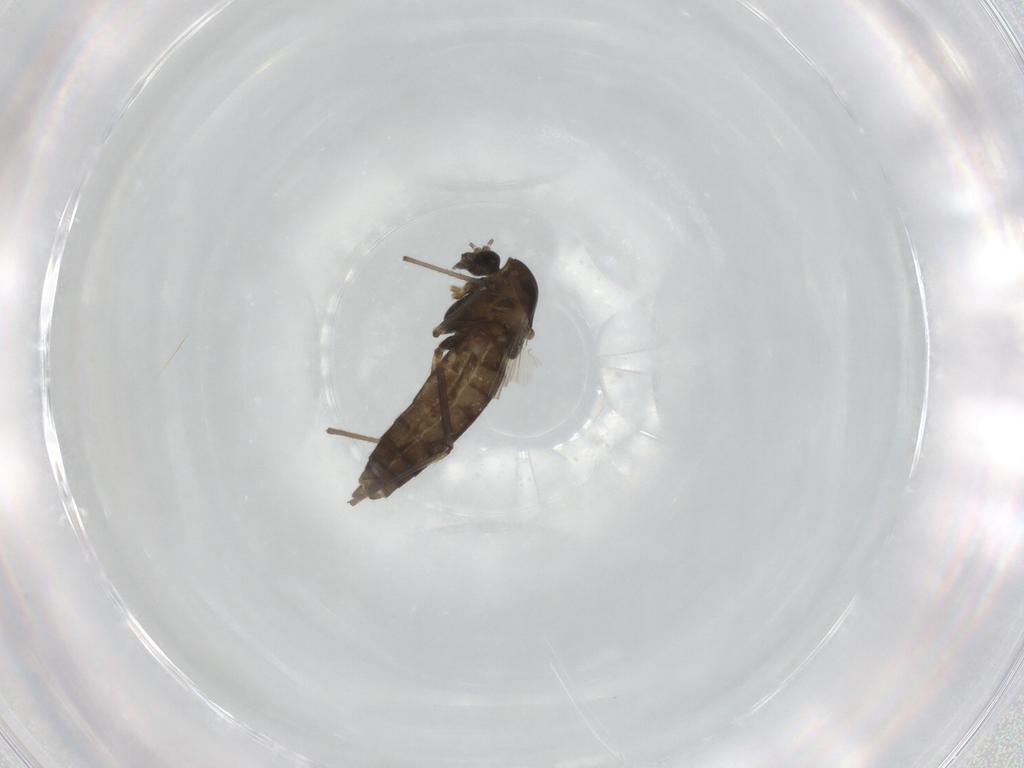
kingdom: Animalia
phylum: Arthropoda
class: Insecta
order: Diptera
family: Chironomidae
